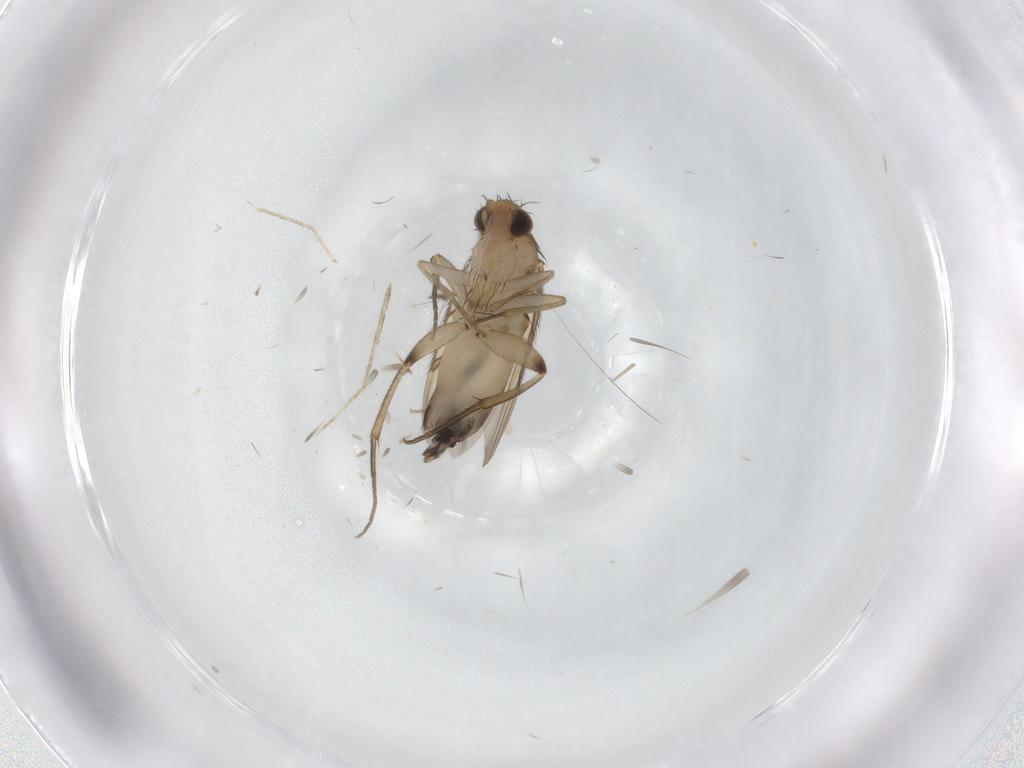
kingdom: Animalia
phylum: Arthropoda
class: Insecta
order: Diptera
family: Phoridae
